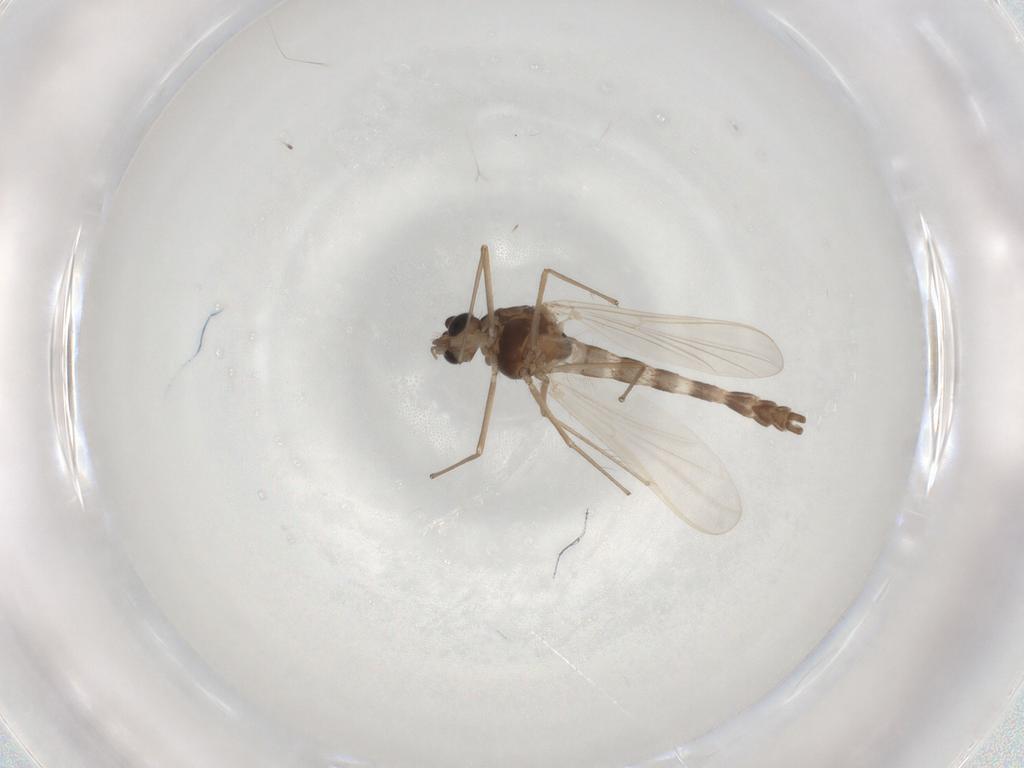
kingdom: Animalia
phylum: Arthropoda
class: Insecta
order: Diptera
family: Chironomidae
